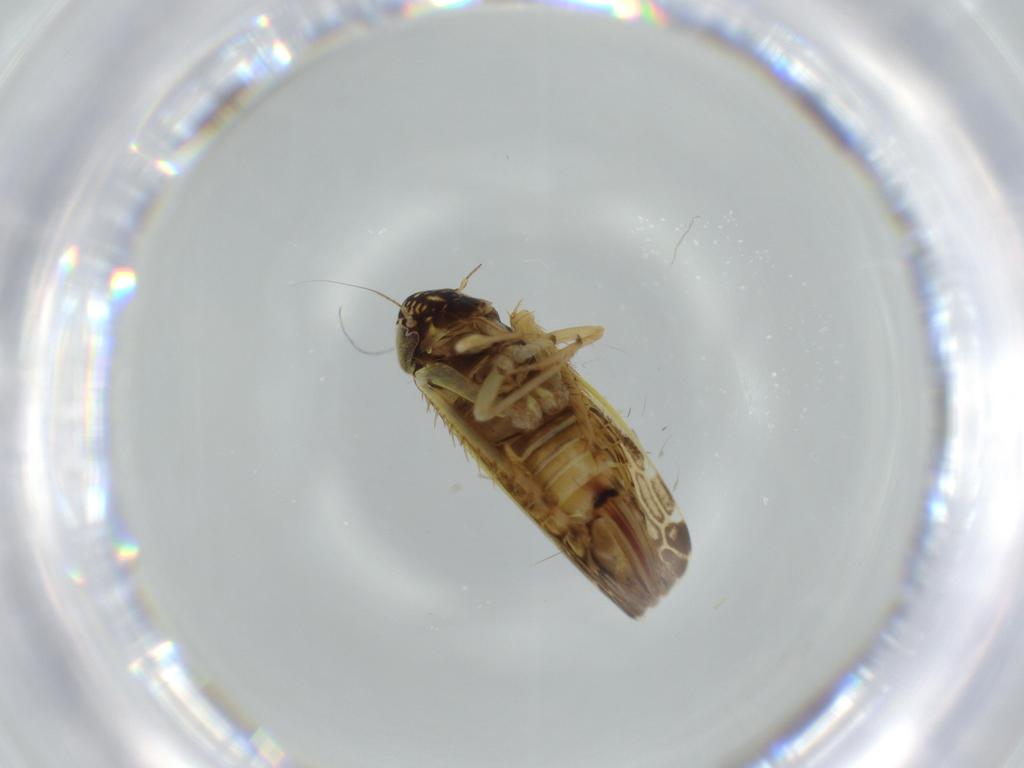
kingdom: Animalia
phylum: Arthropoda
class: Insecta
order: Hemiptera
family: Cicadellidae
